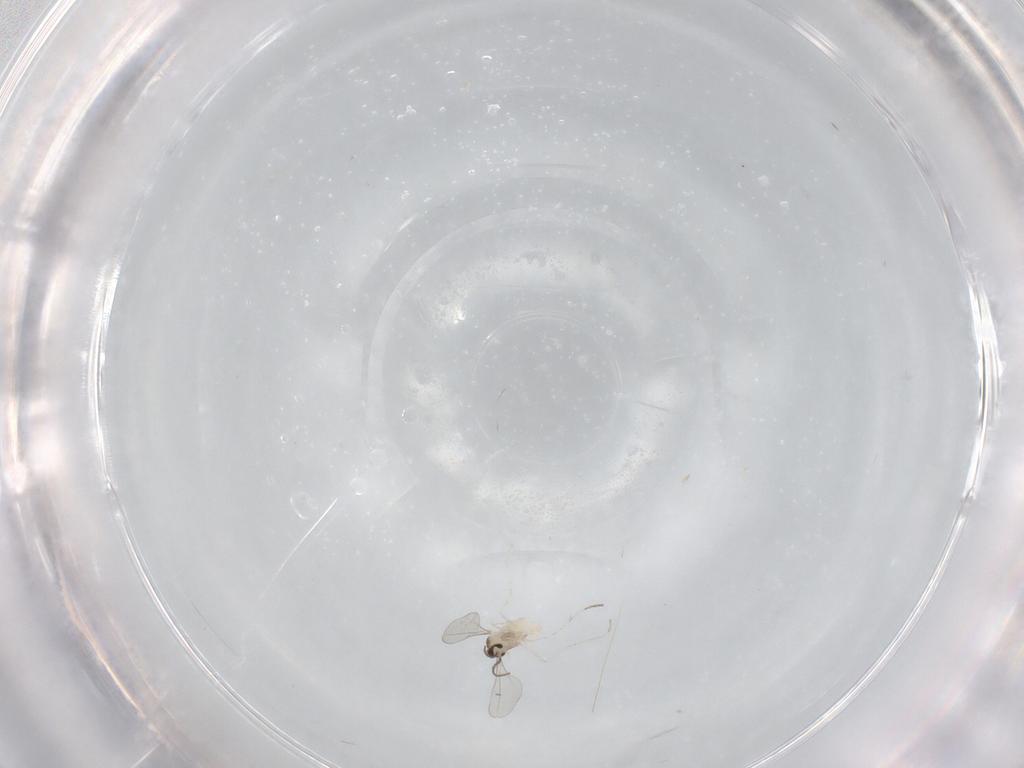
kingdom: Animalia
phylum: Arthropoda
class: Insecta
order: Diptera
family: Cecidomyiidae
